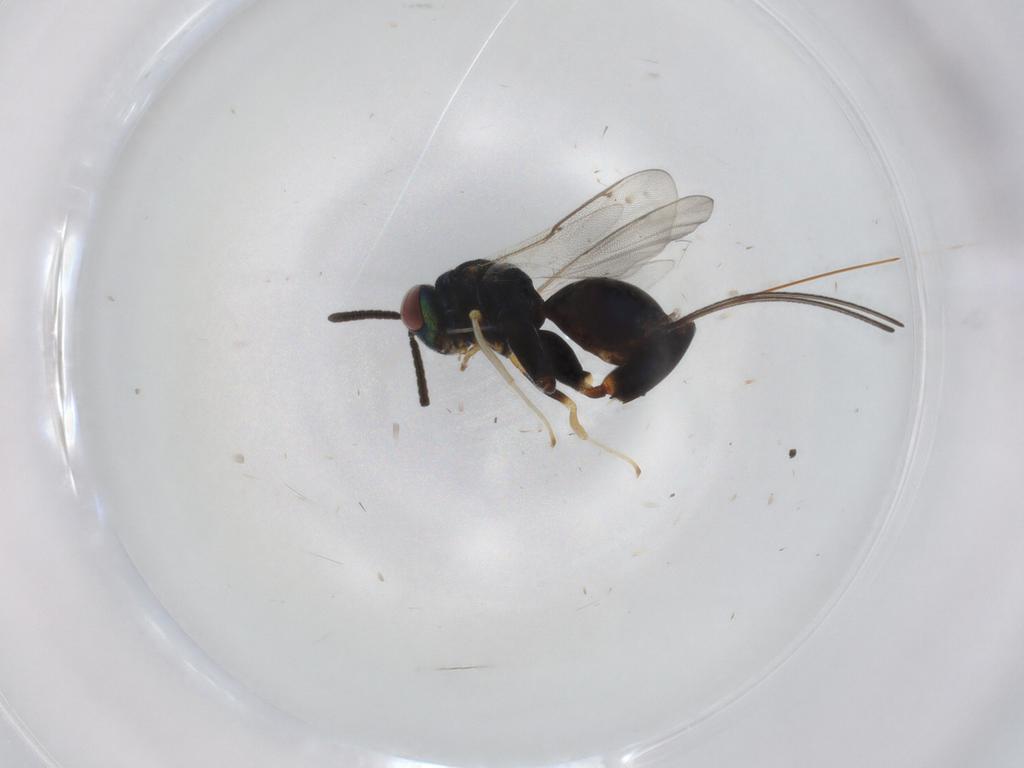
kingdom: Animalia
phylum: Arthropoda
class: Insecta
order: Hymenoptera
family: Torymidae
